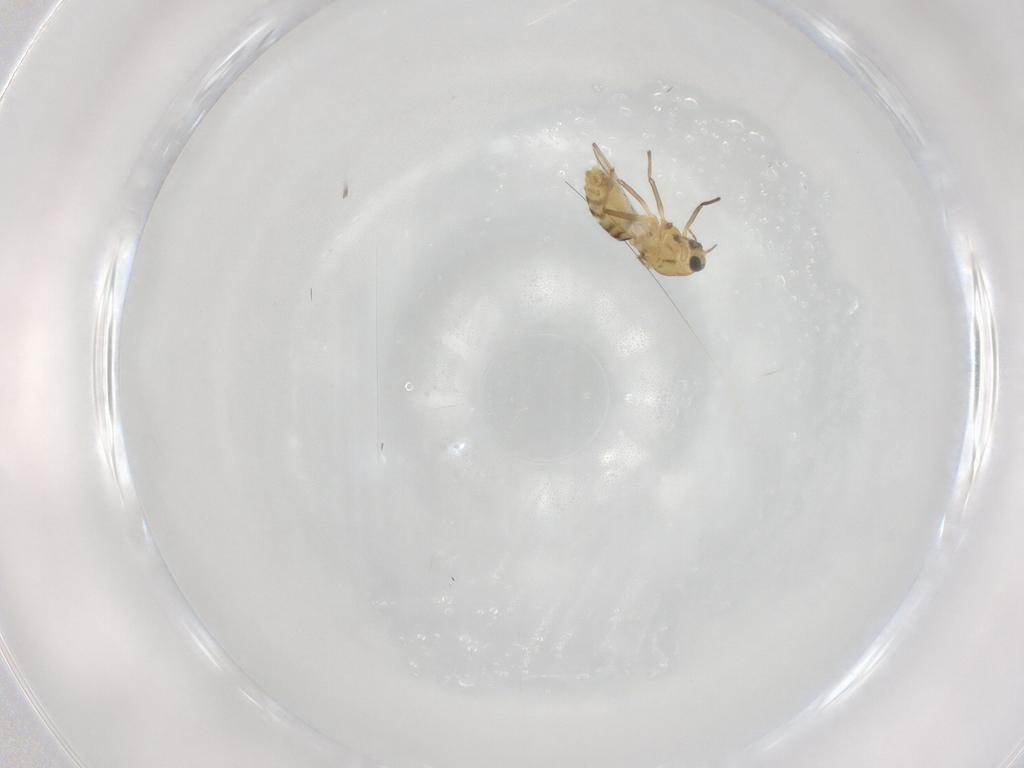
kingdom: Animalia
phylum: Arthropoda
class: Insecta
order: Diptera
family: Chironomidae
